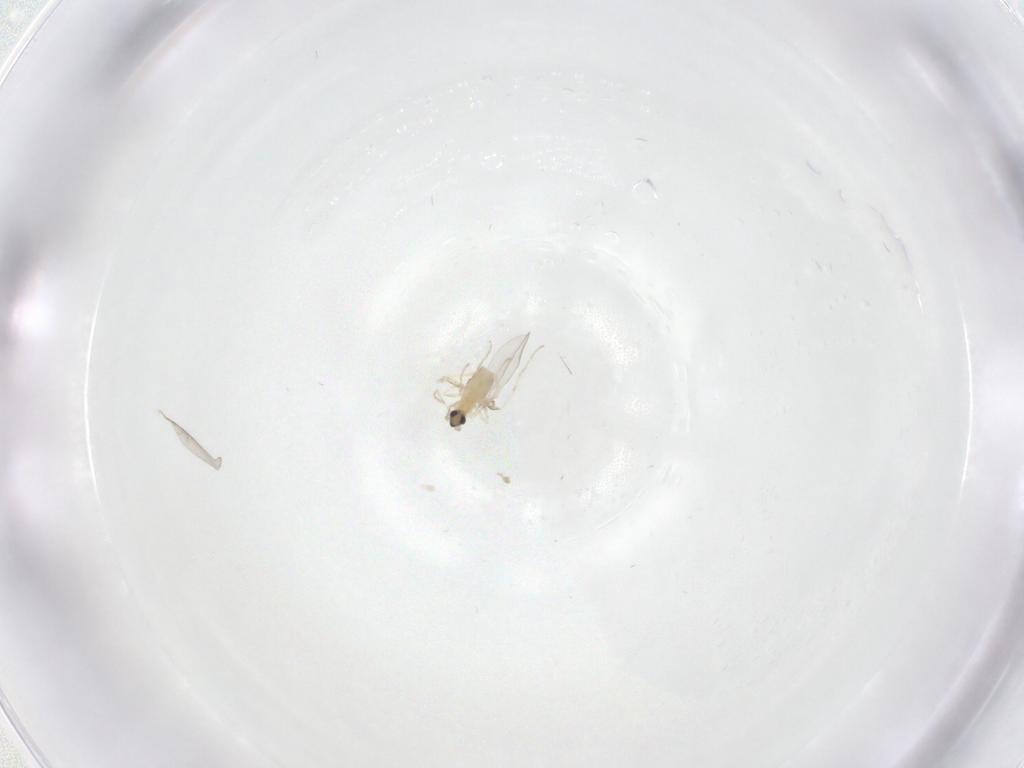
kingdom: Animalia
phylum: Arthropoda
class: Insecta
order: Diptera
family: Cecidomyiidae
